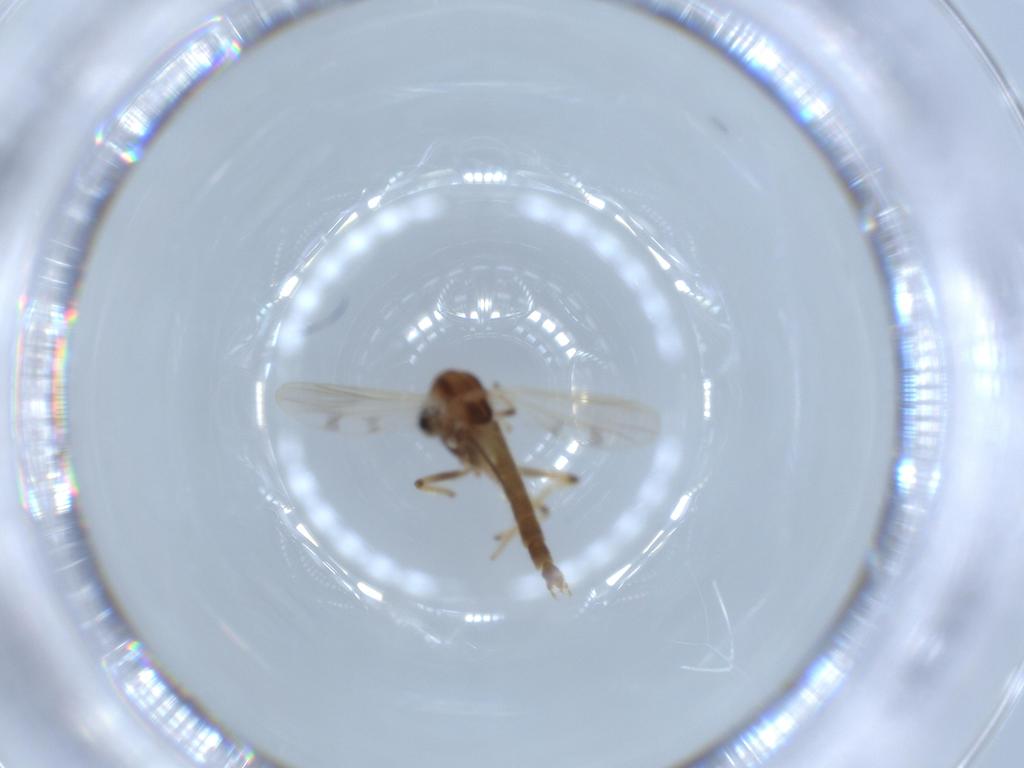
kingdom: Animalia
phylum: Arthropoda
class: Insecta
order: Diptera
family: Chironomidae
